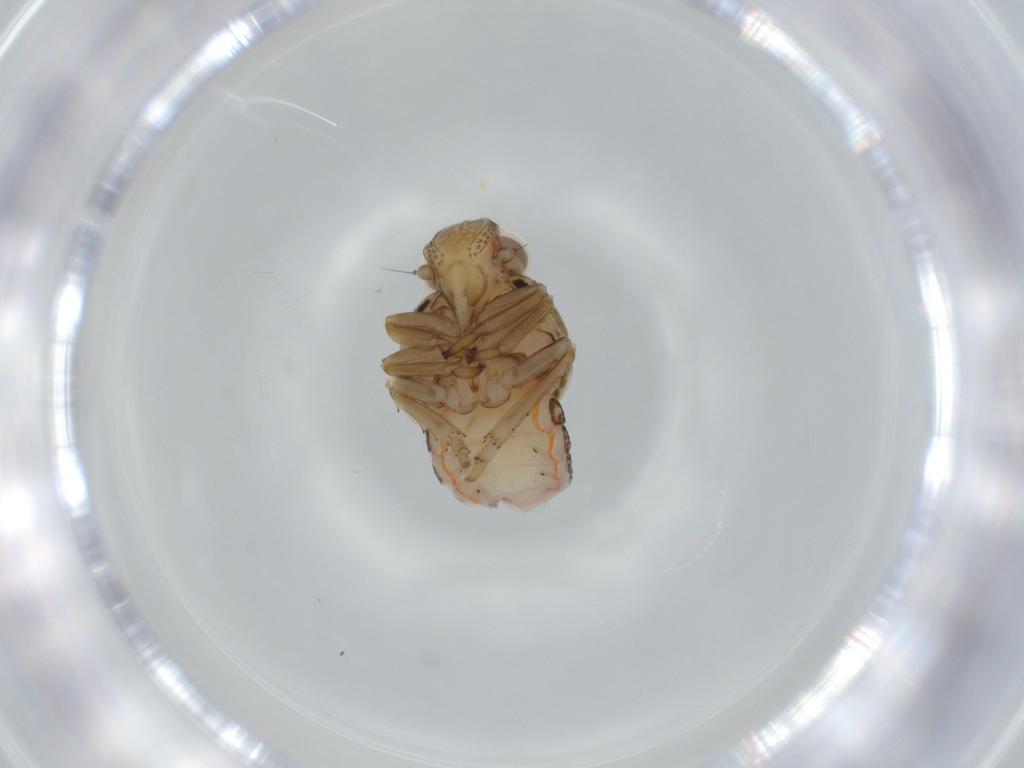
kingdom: Animalia
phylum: Arthropoda
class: Insecta
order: Hemiptera
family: Issidae
